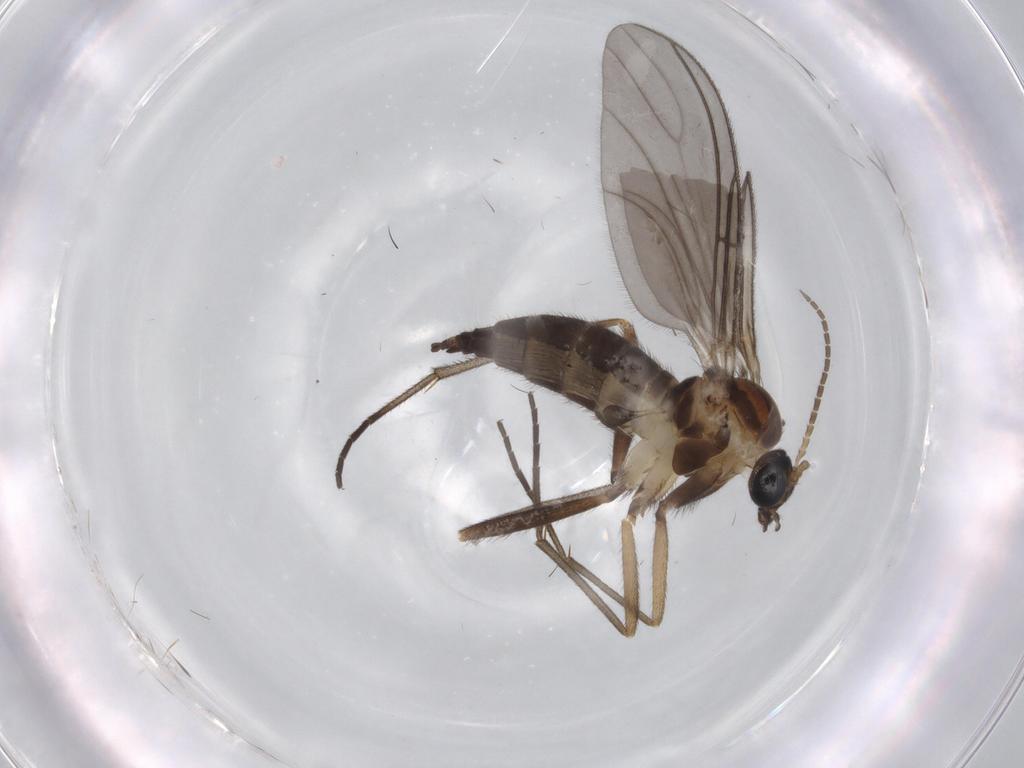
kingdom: Animalia
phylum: Arthropoda
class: Insecta
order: Diptera
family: Sciaridae
